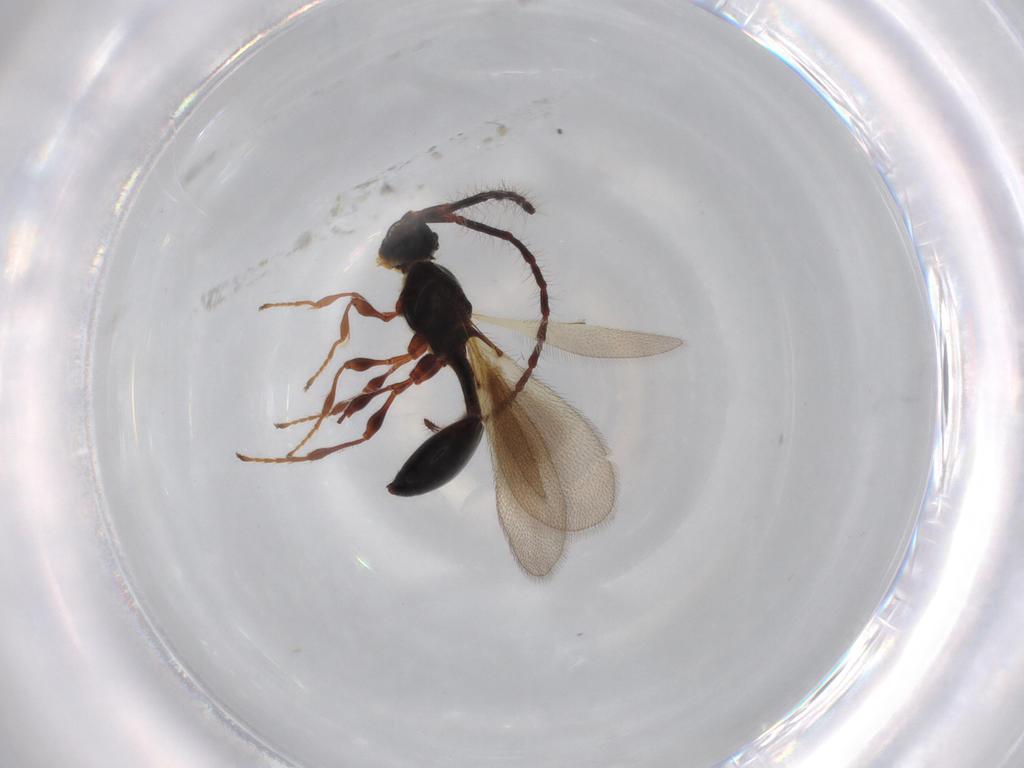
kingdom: Animalia
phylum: Arthropoda
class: Insecta
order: Hymenoptera
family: Diapriidae
